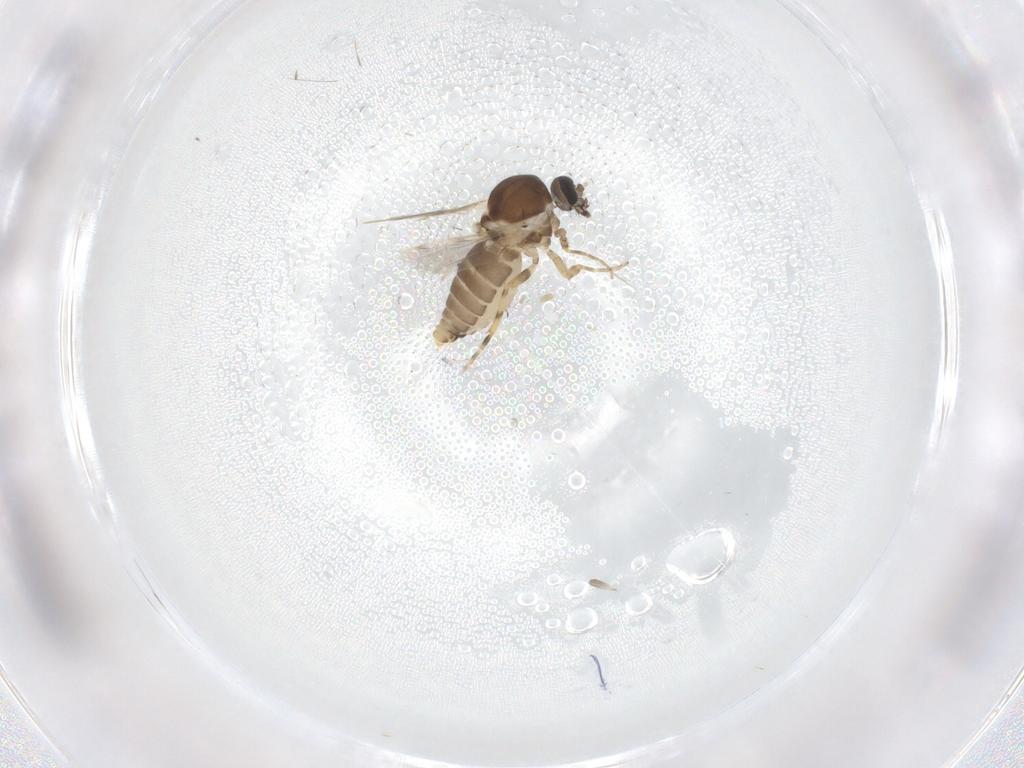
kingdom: Animalia
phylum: Arthropoda
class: Insecta
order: Diptera
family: Ceratopogonidae
